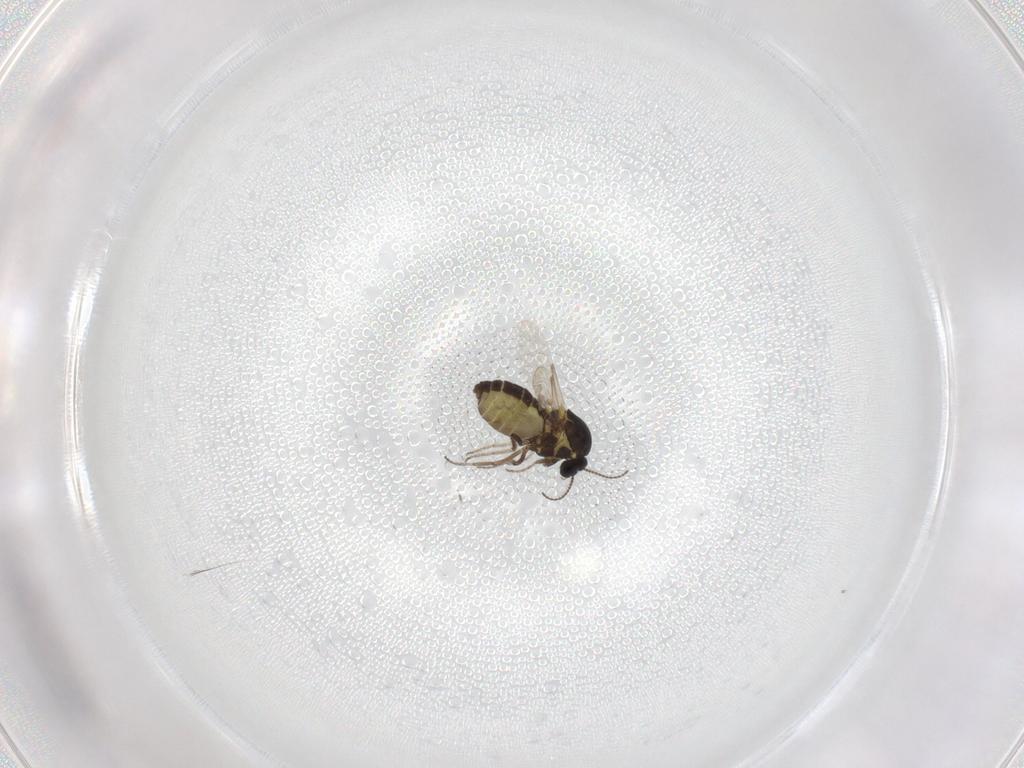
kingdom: Animalia
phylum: Arthropoda
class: Insecta
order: Diptera
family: Ceratopogonidae
